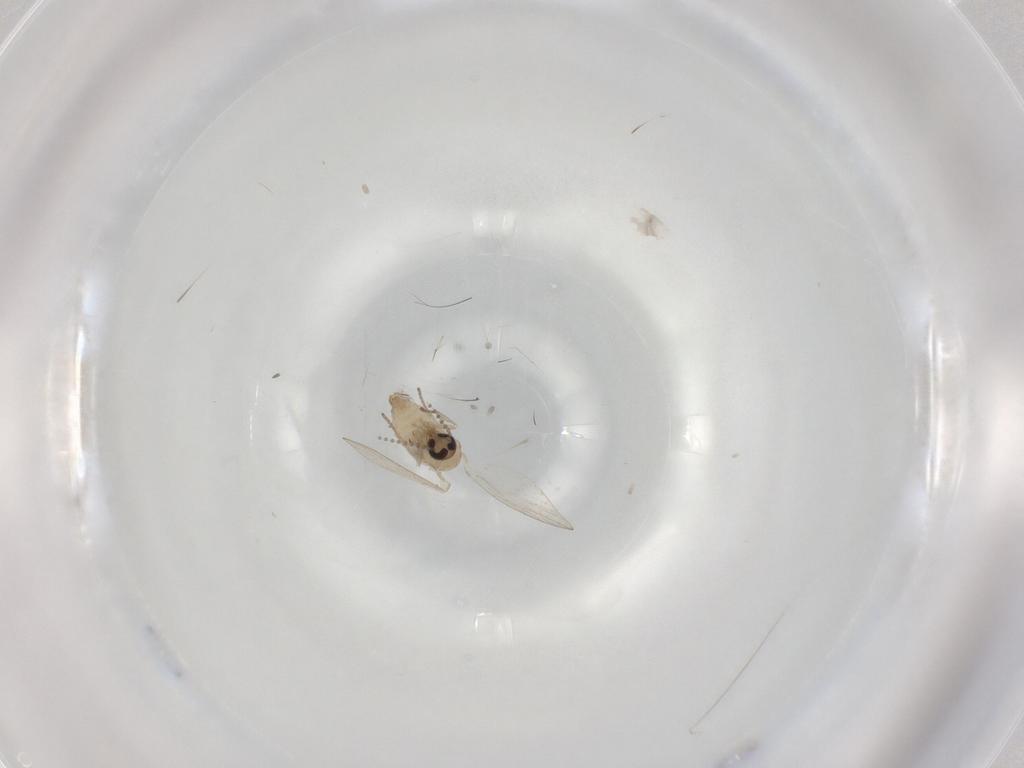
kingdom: Animalia
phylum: Arthropoda
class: Insecta
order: Diptera
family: Psychodidae
